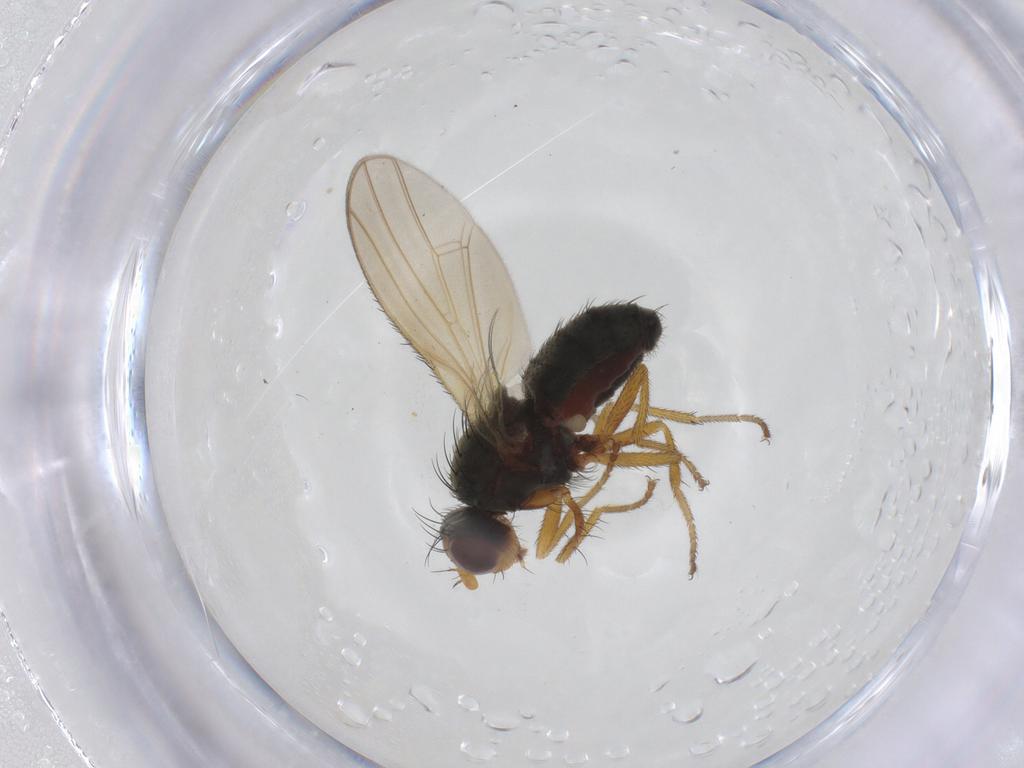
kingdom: Animalia
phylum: Arthropoda
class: Insecta
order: Diptera
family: Heleomyzidae
